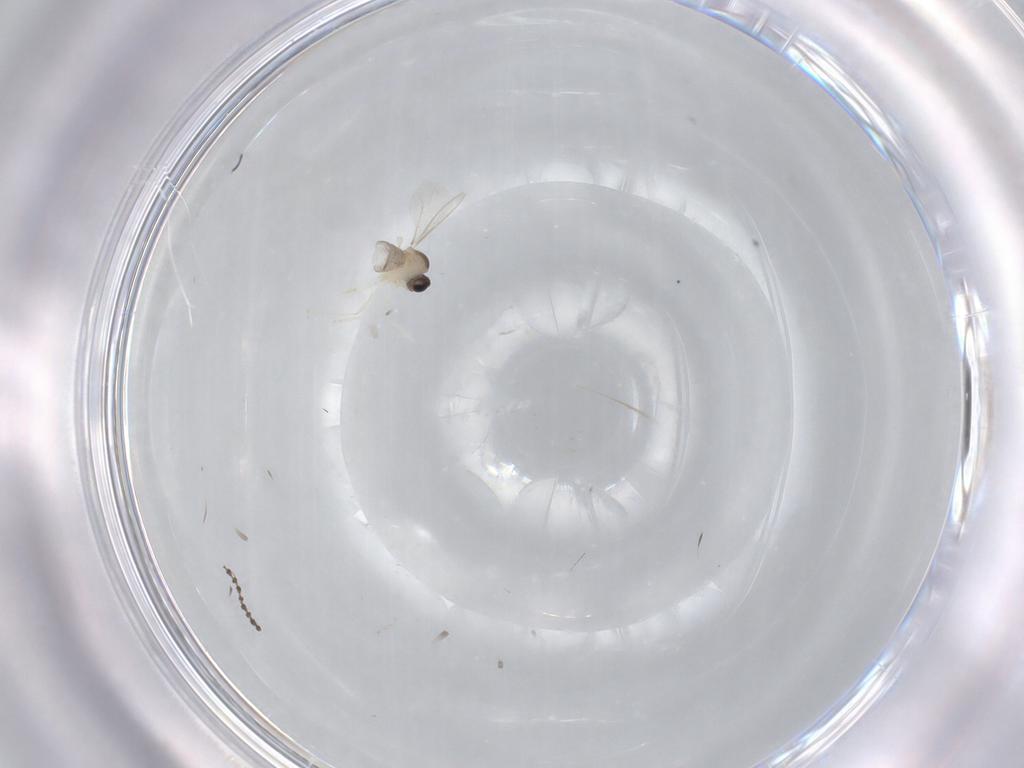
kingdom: Animalia
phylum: Arthropoda
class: Insecta
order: Diptera
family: Cecidomyiidae
